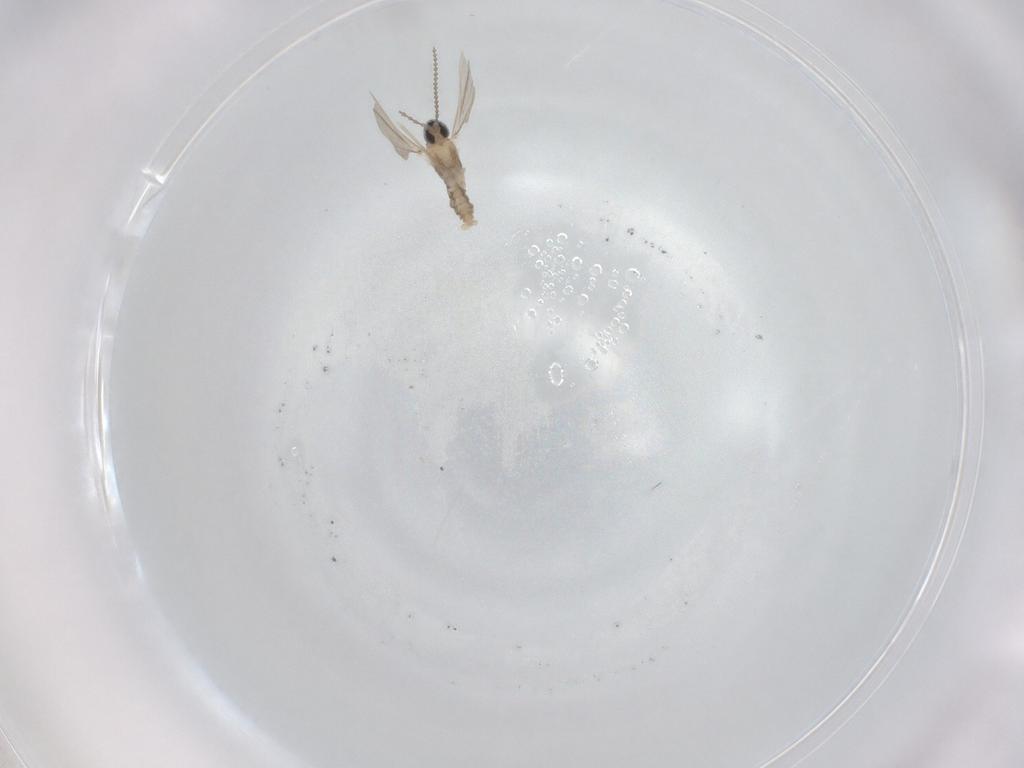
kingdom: Animalia
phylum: Arthropoda
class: Insecta
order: Diptera
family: Cecidomyiidae
